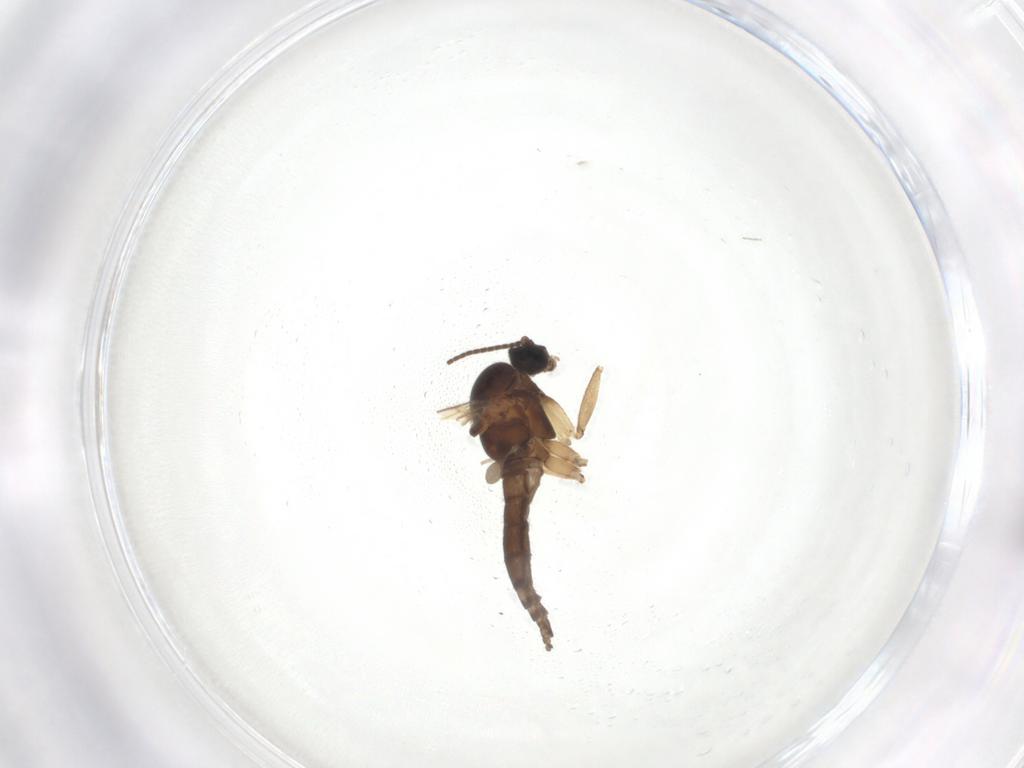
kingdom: Animalia
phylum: Arthropoda
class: Insecta
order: Diptera
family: Sciaridae
